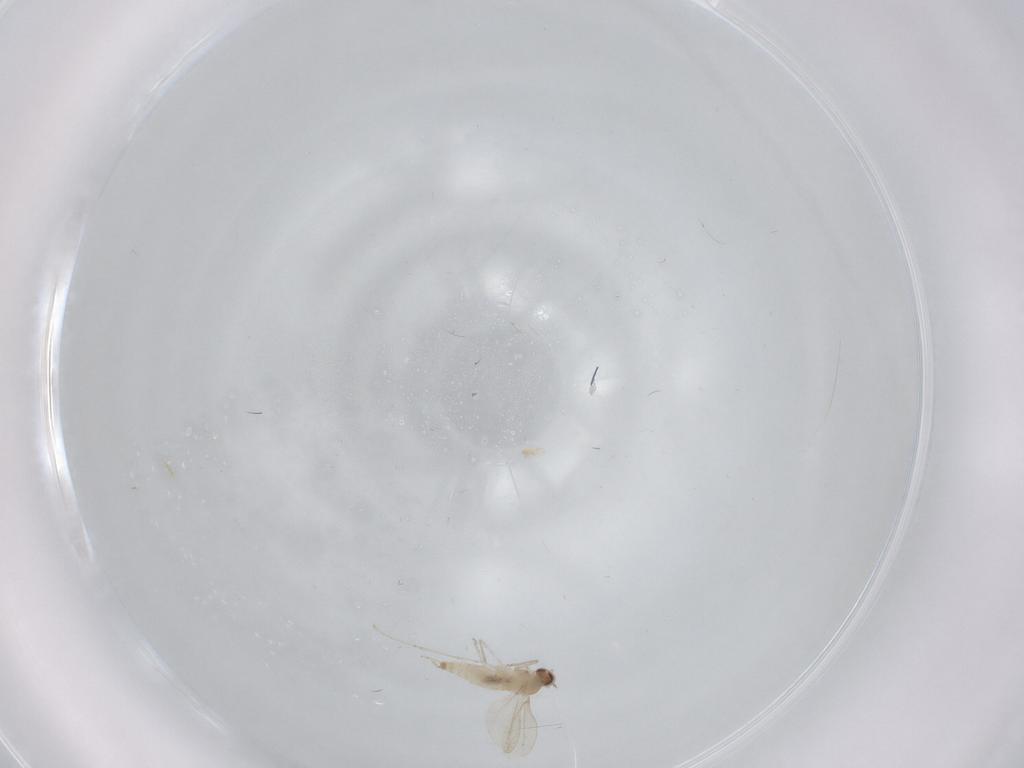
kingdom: Animalia
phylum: Arthropoda
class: Insecta
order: Diptera
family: Cecidomyiidae
